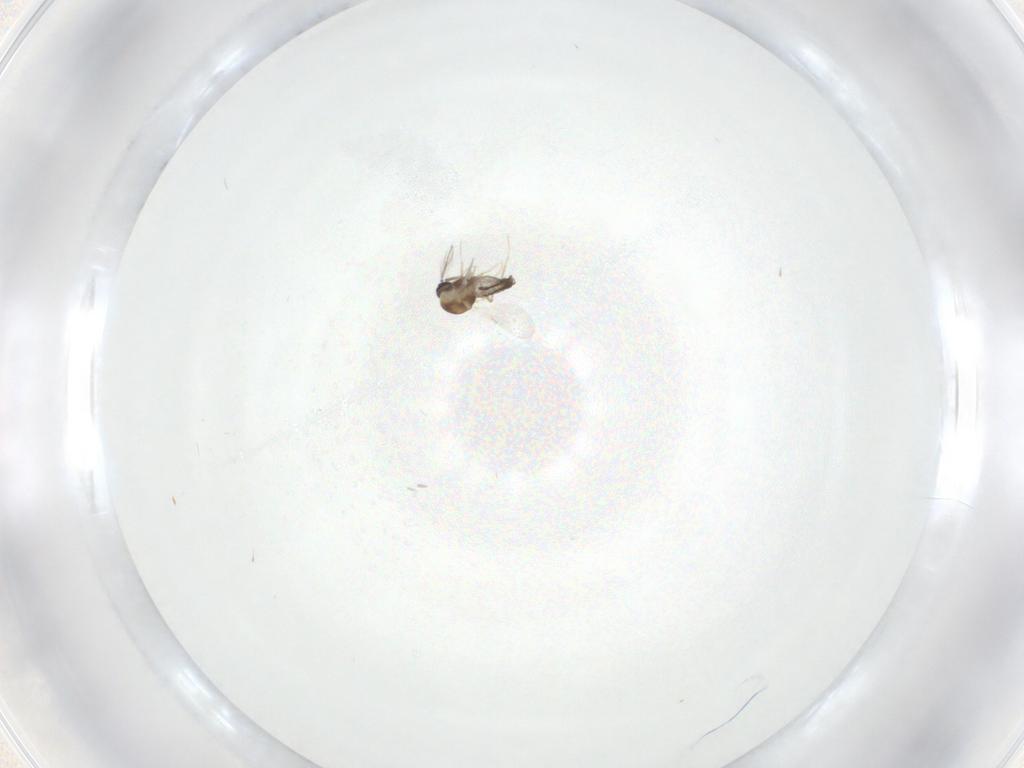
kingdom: Animalia
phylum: Arthropoda
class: Insecta
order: Diptera
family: Ceratopogonidae
